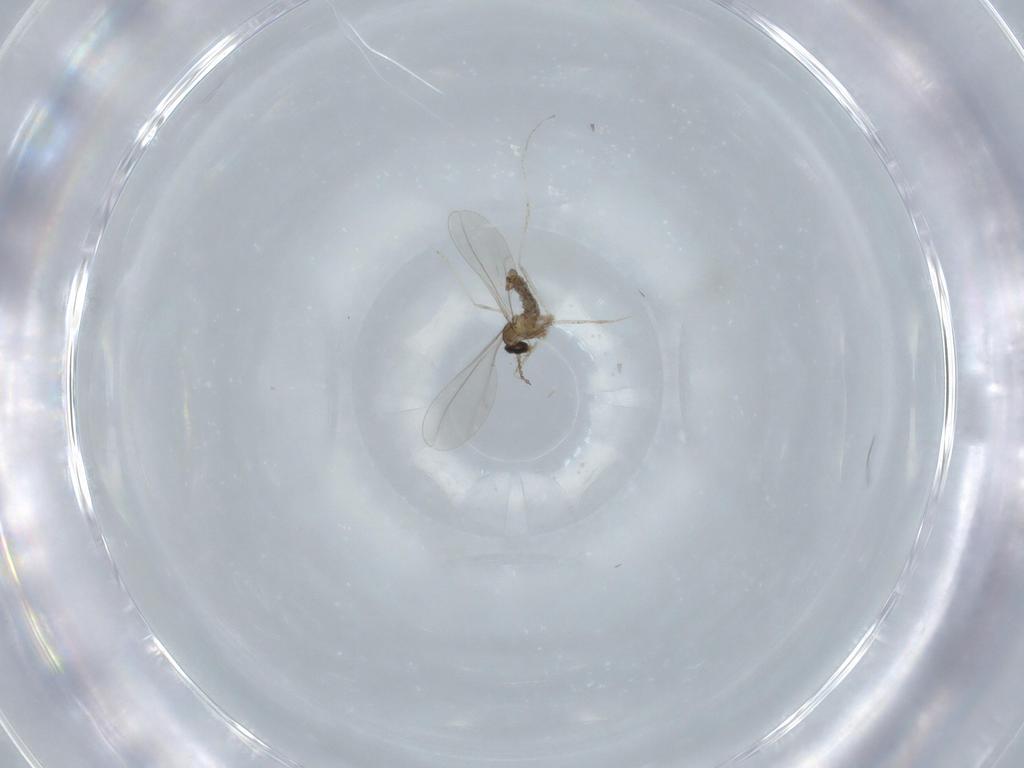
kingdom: Animalia
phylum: Arthropoda
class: Insecta
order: Diptera
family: Cecidomyiidae
